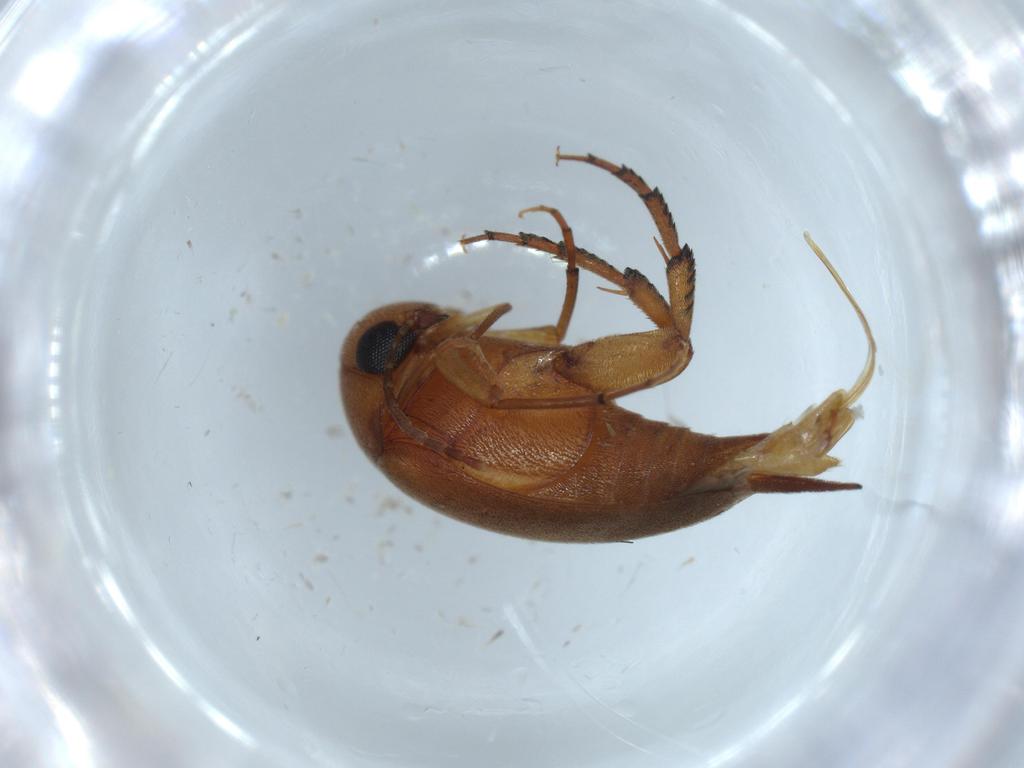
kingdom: Animalia
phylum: Arthropoda
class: Insecta
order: Coleoptera
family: Mordellidae
